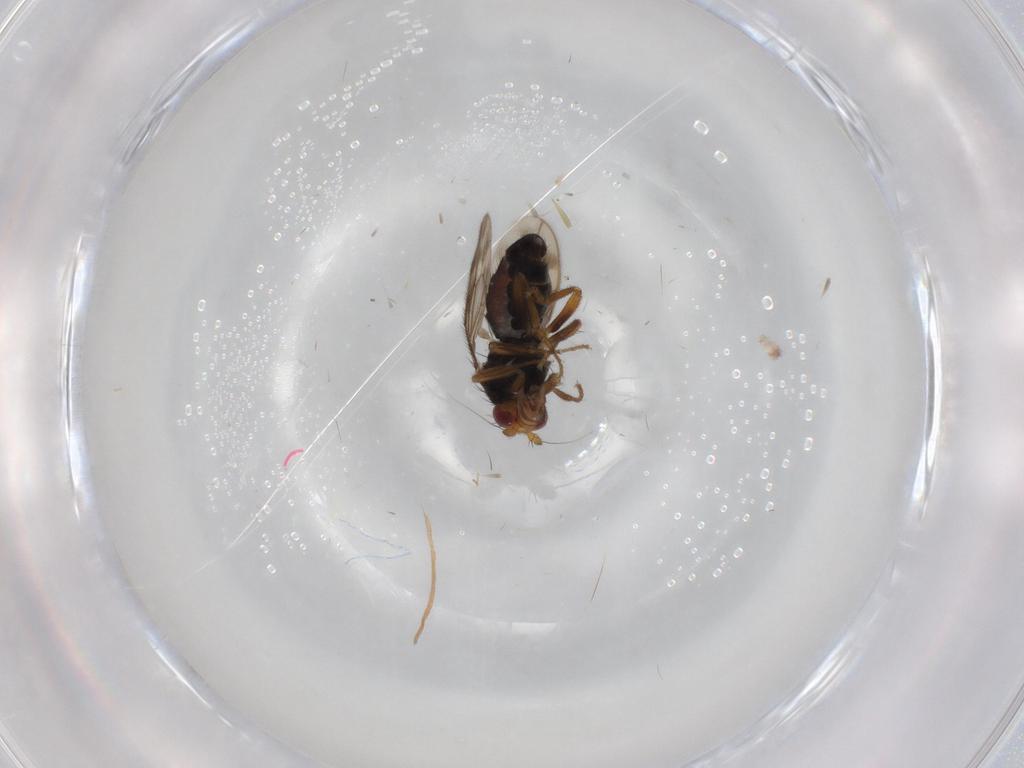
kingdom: Animalia
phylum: Arthropoda
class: Insecta
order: Diptera
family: Sphaeroceridae
